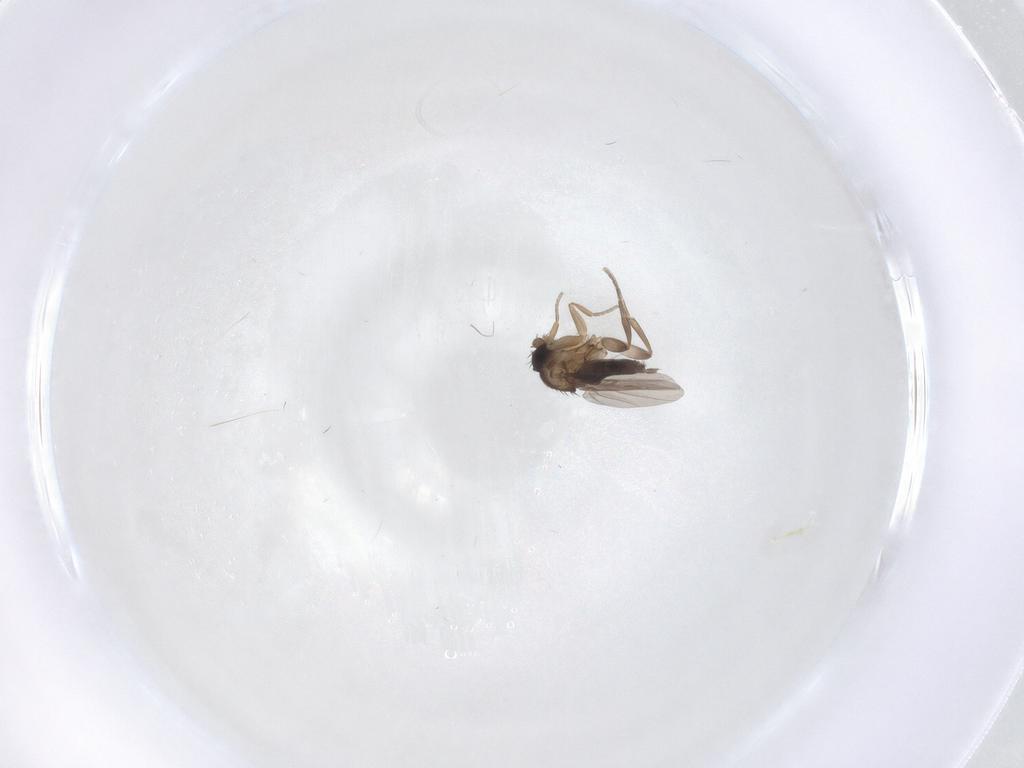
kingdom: Animalia
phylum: Arthropoda
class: Insecta
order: Diptera
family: Phoridae
